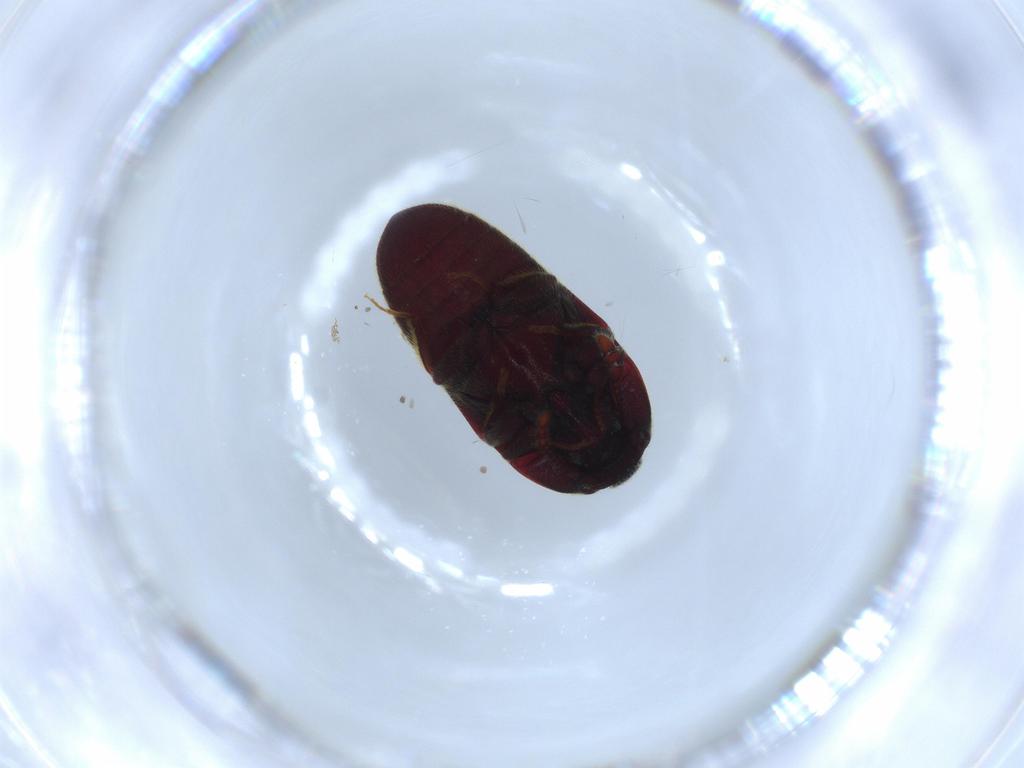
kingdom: Animalia
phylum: Arthropoda
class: Insecta
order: Coleoptera
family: Throscidae
